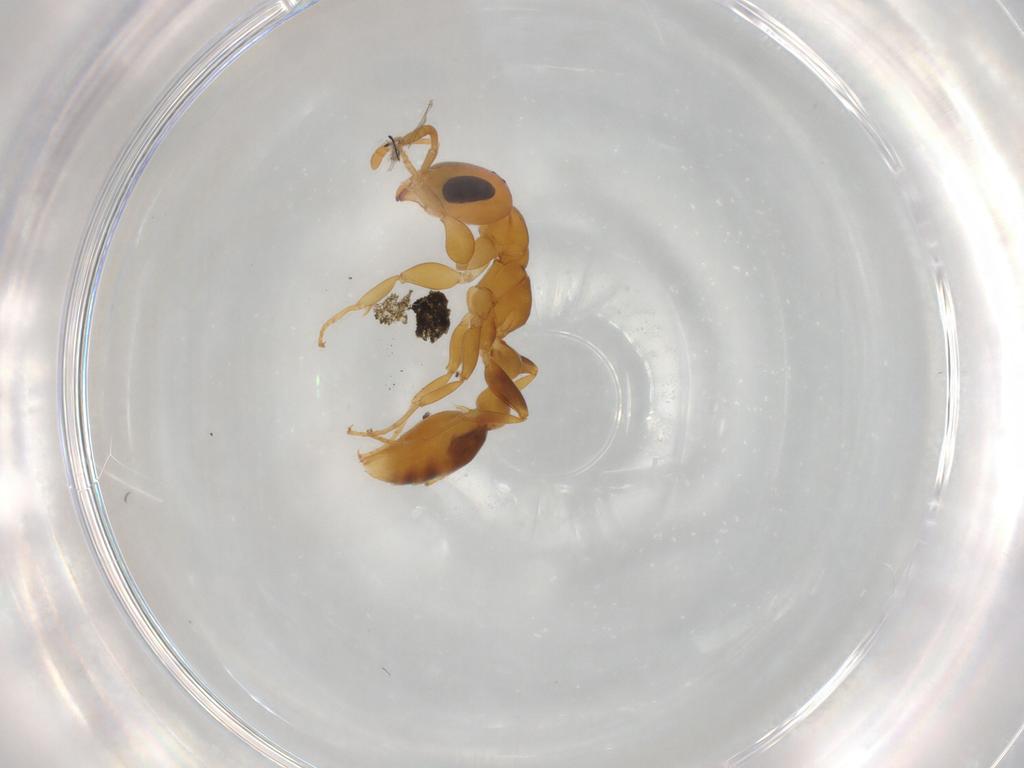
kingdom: Animalia
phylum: Arthropoda
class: Insecta
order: Hymenoptera
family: Formicidae
